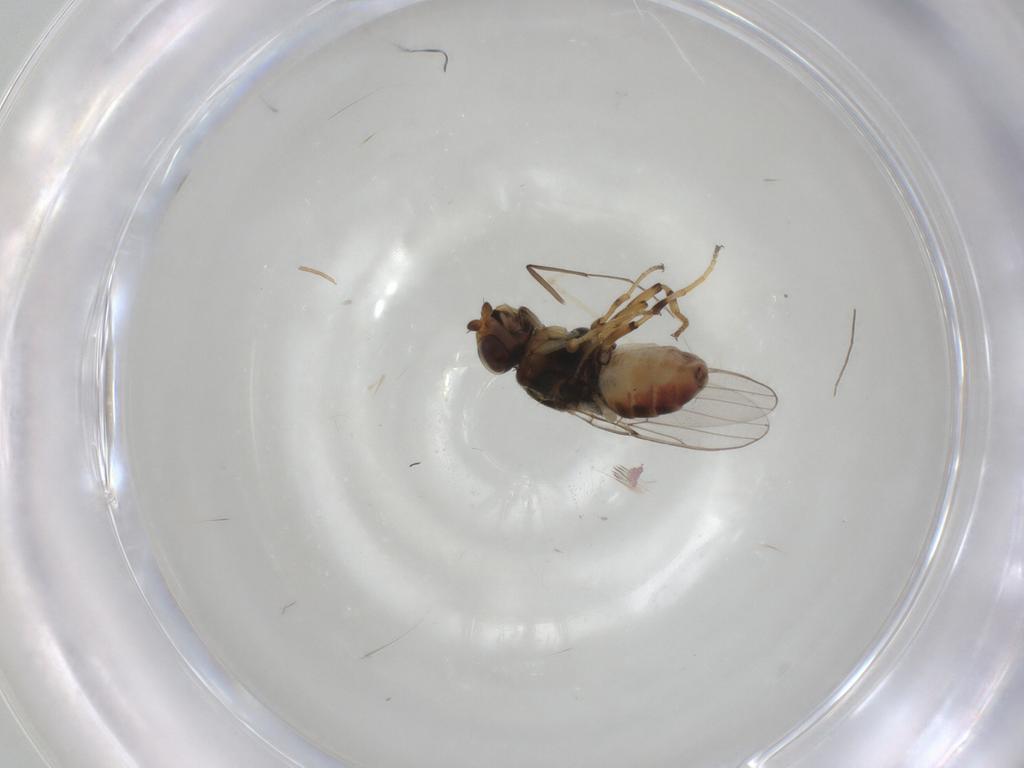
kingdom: Animalia
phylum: Arthropoda
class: Insecta
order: Diptera
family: Chloropidae
